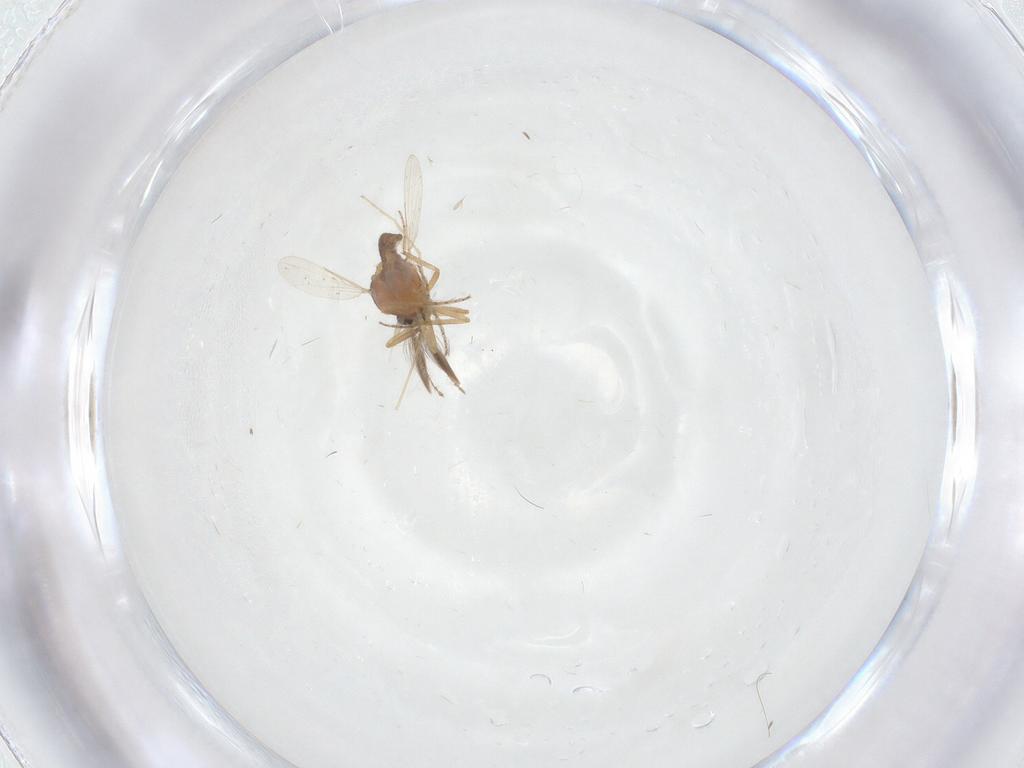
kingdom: Animalia
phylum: Arthropoda
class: Insecta
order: Diptera
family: Ceratopogonidae
